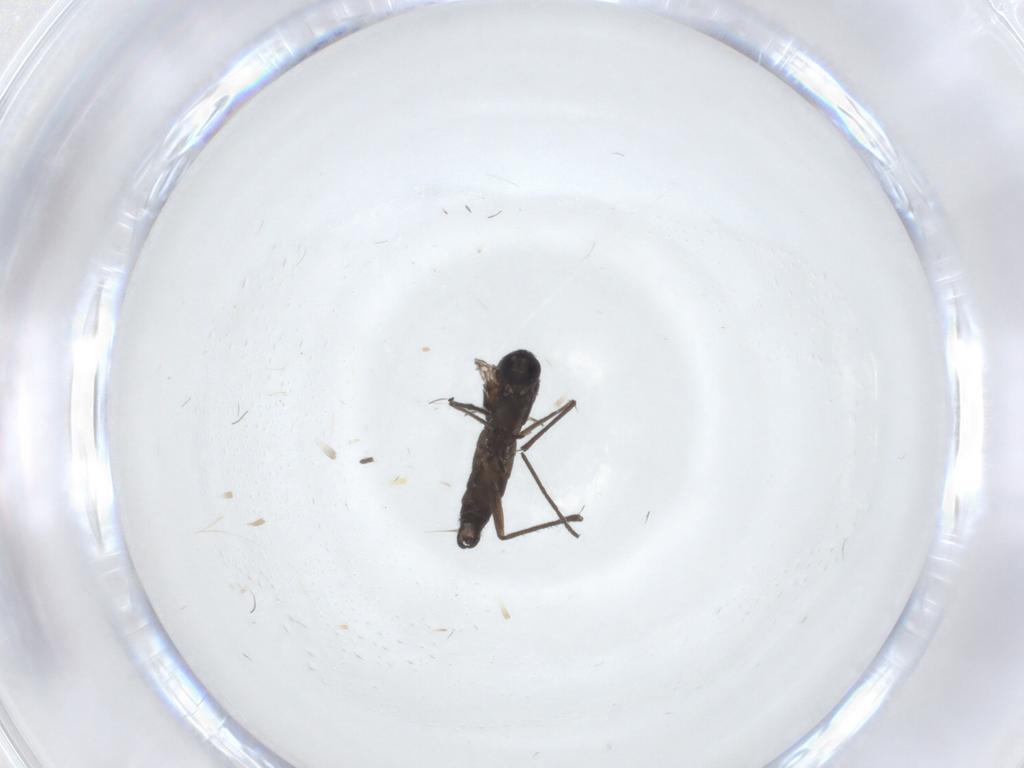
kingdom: Animalia
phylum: Arthropoda
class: Insecta
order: Diptera
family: Sciaridae
